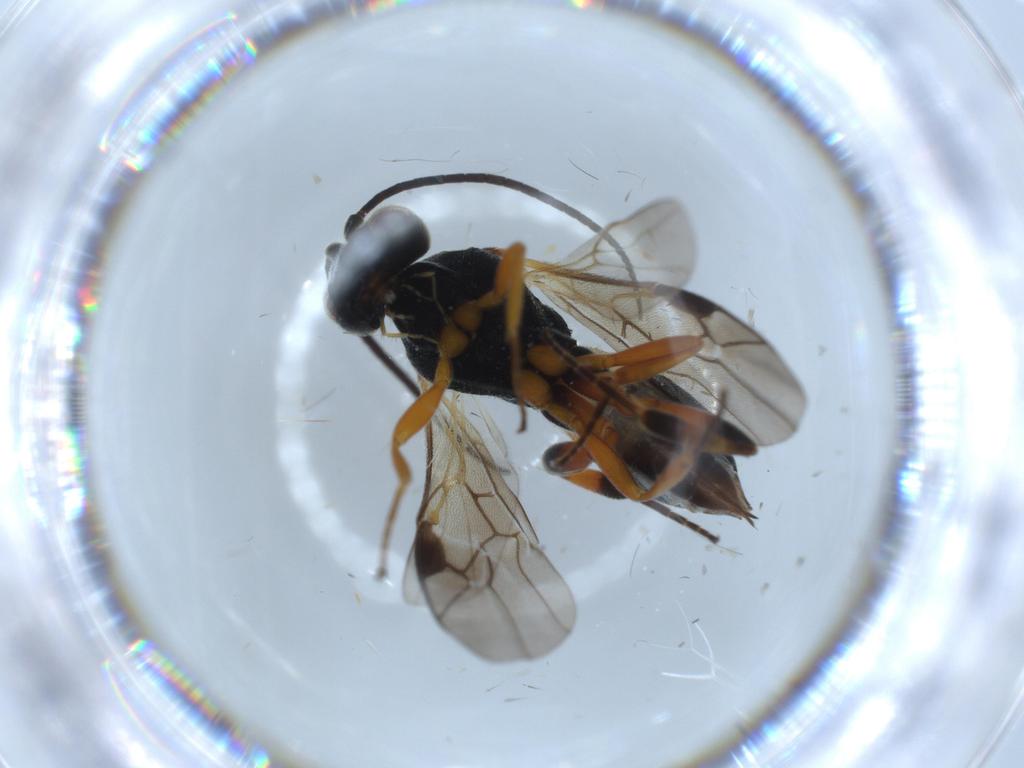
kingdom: Animalia
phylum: Arthropoda
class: Insecta
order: Hymenoptera
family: Braconidae
